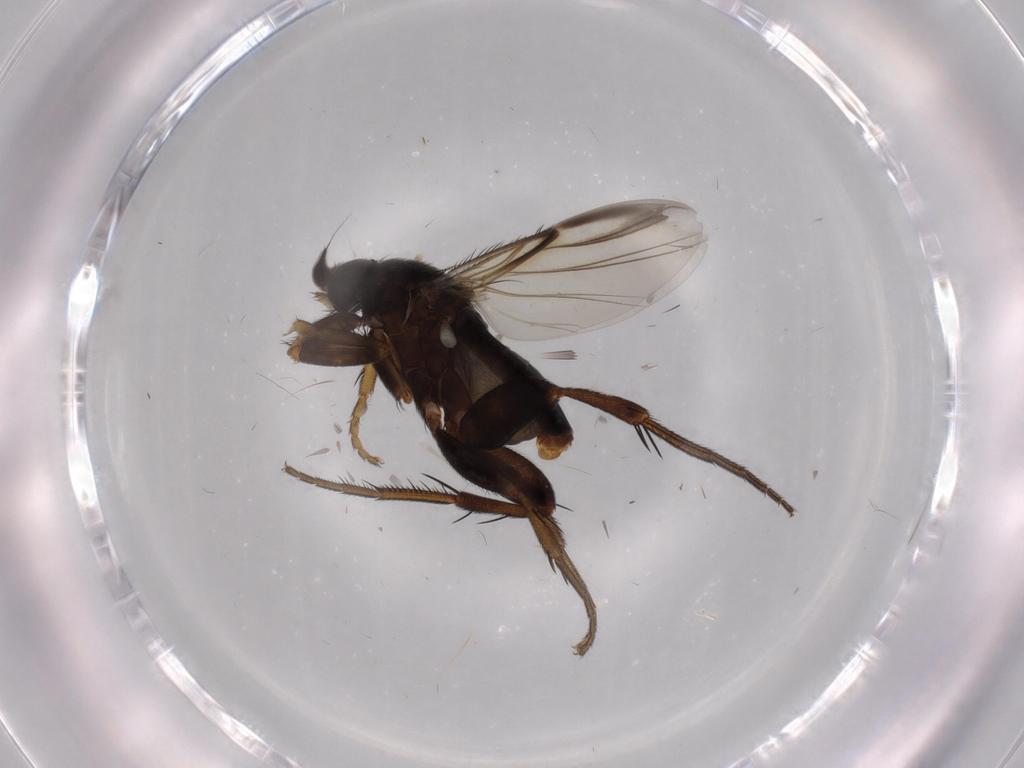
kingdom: Animalia
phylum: Arthropoda
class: Insecta
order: Diptera
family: Phoridae
